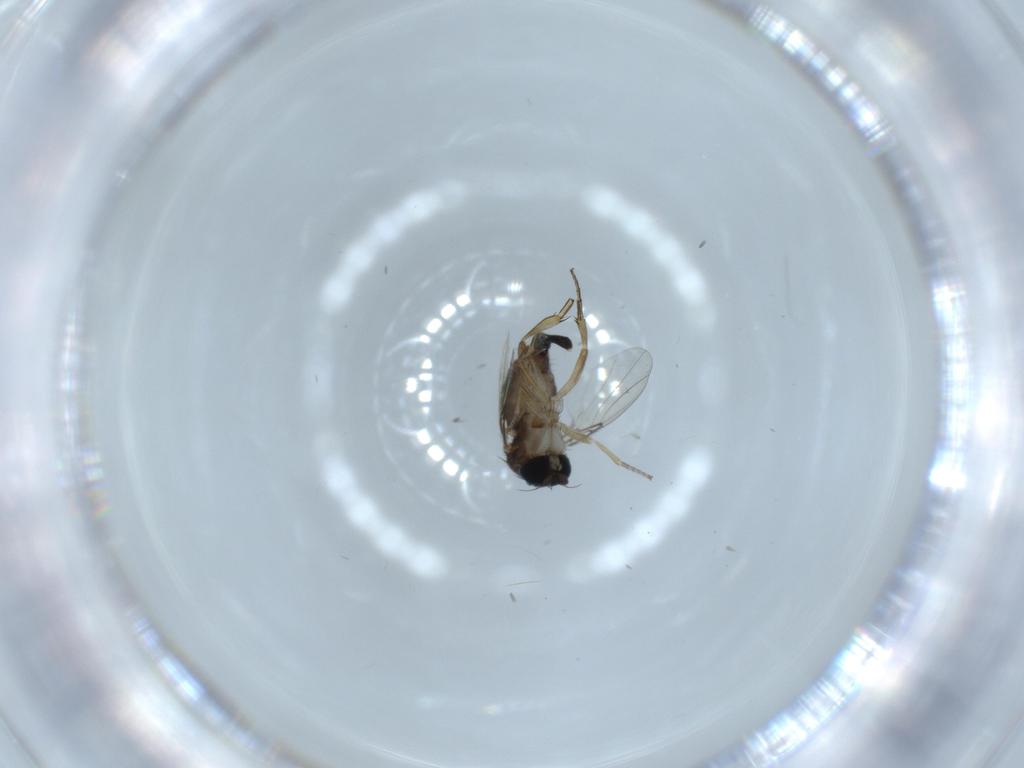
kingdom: Animalia
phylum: Arthropoda
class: Insecta
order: Diptera
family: Phoridae
